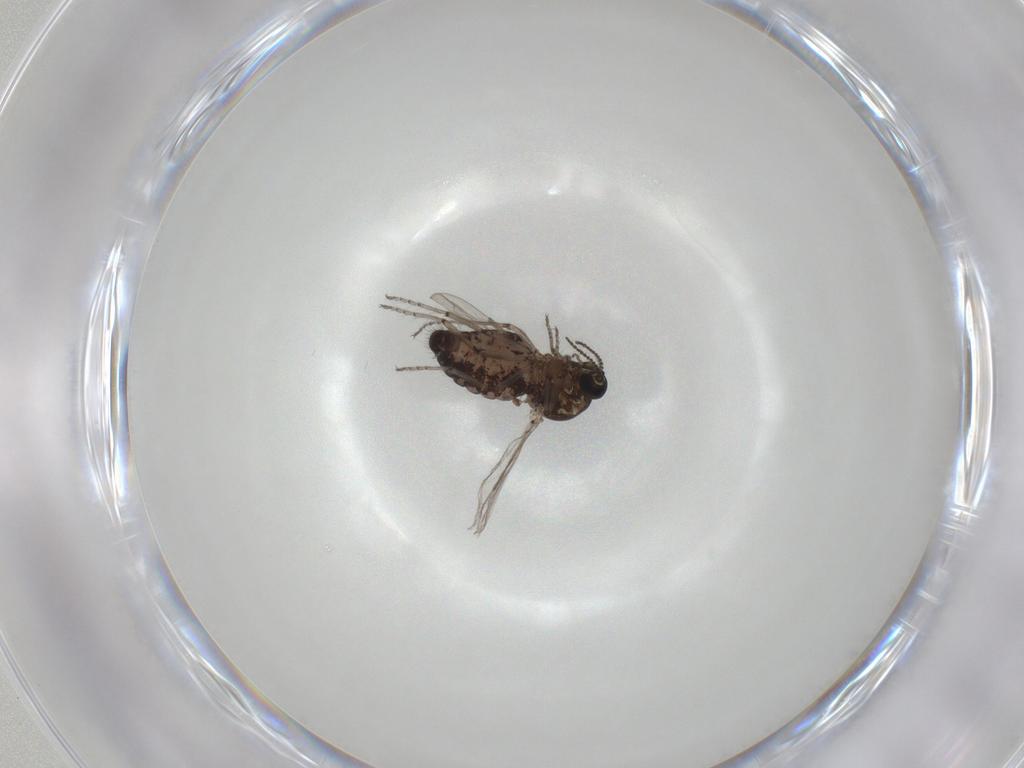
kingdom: Animalia
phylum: Arthropoda
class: Insecta
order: Diptera
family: Ceratopogonidae
